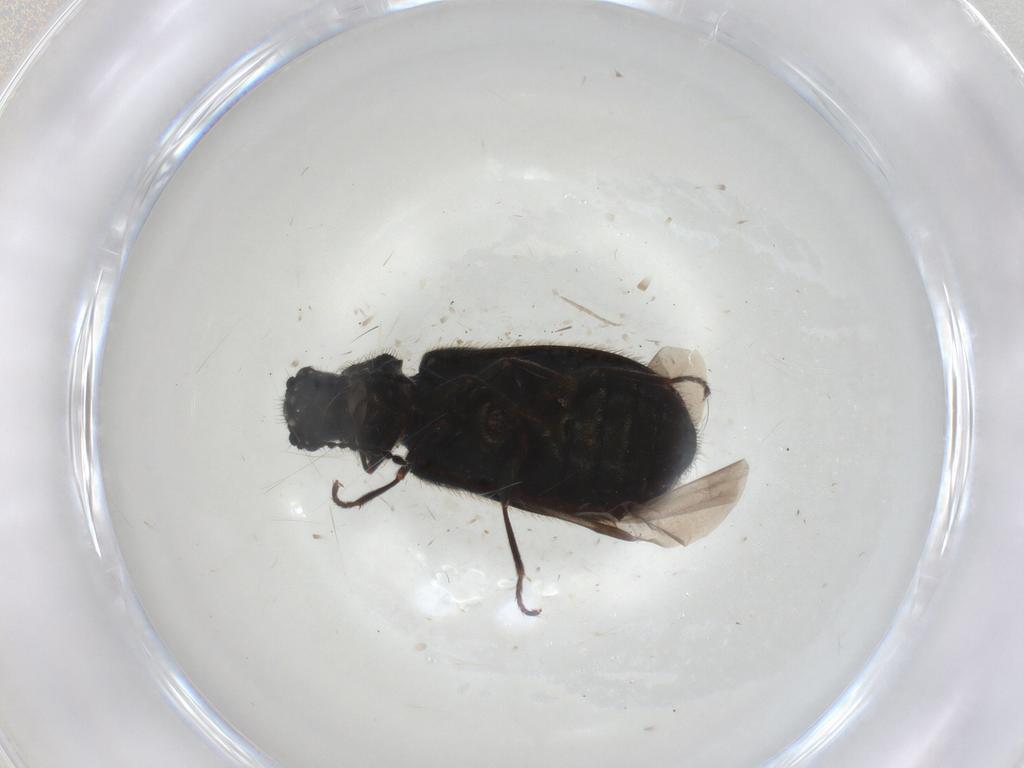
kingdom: Animalia
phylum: Arthropoda
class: Insecta
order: Coleoptera
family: Melyridae
